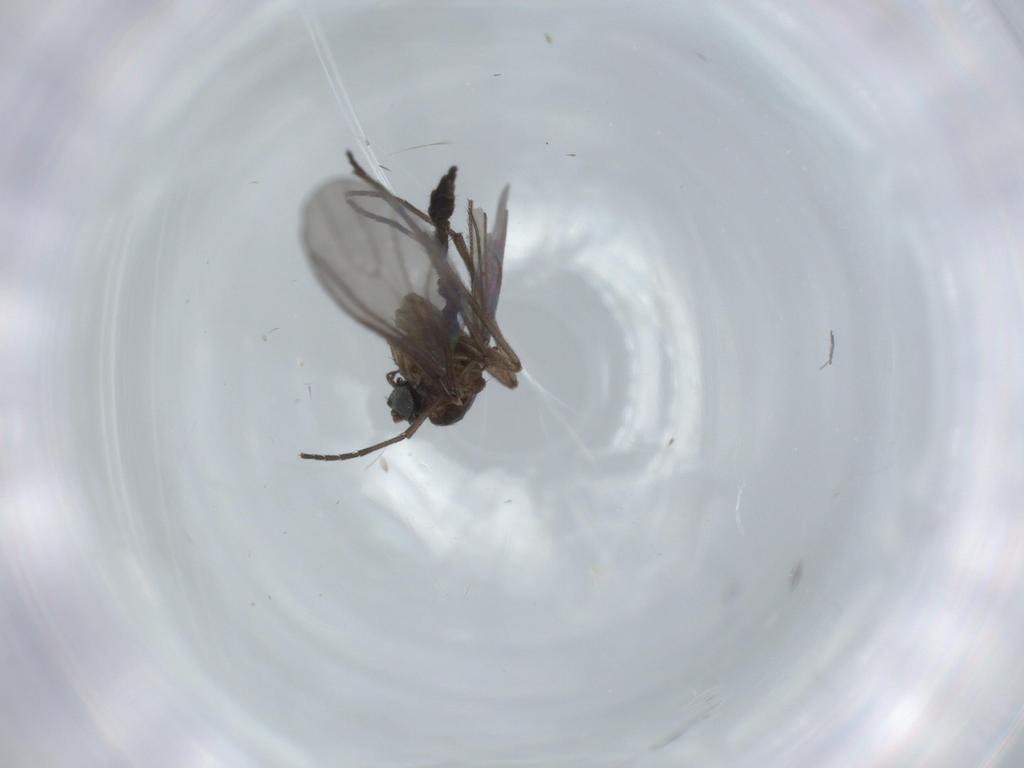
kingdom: Animalia
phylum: Arthropoda
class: Insecta
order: Diptera
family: Sciaridae
